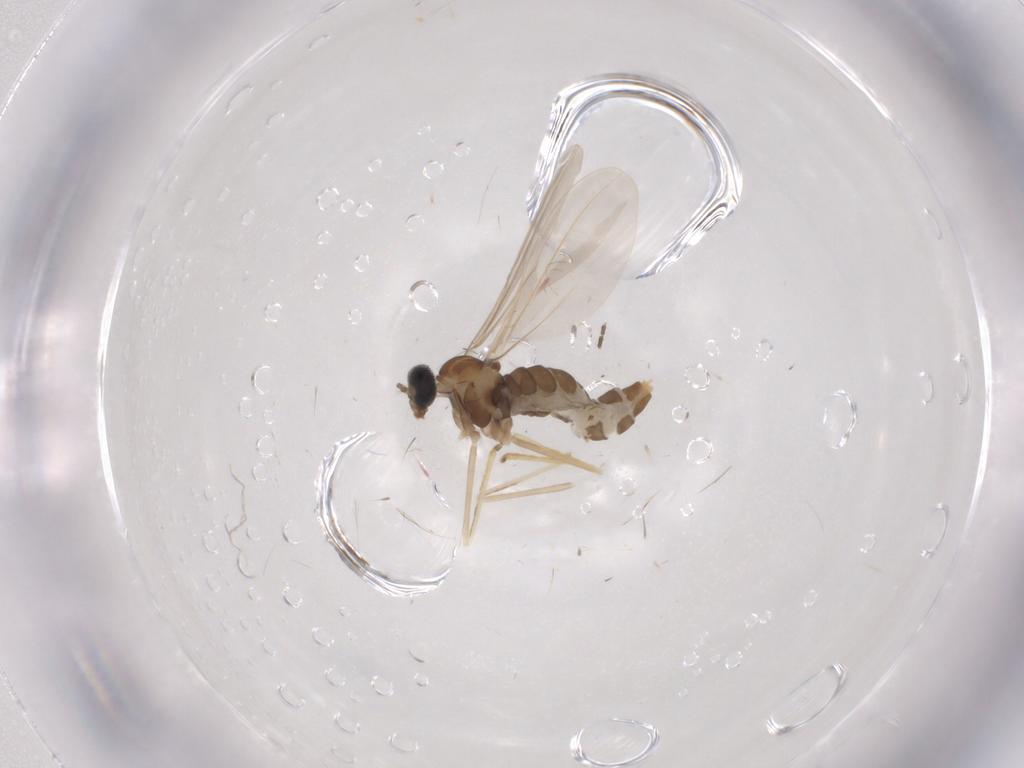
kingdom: Animalia
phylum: Arthropoda
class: Insecta
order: Diptera
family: Cecidomyiidae
